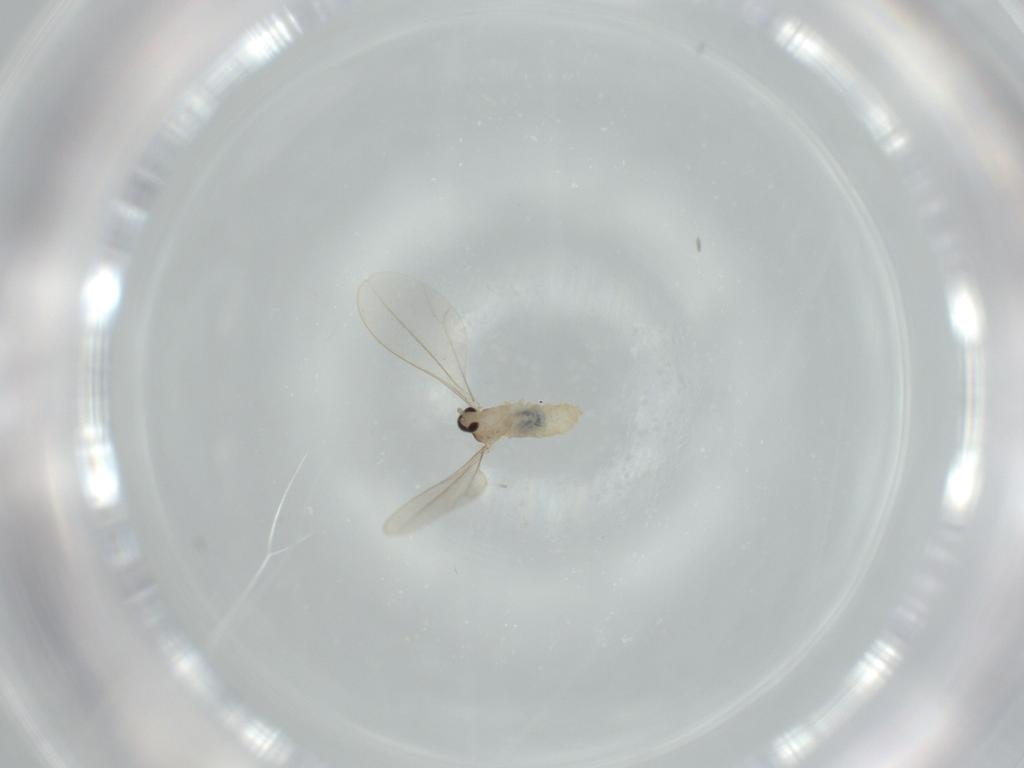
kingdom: Animalia
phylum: Arthropoda
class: Insecta
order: Diptera
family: Cecidomyiidae
